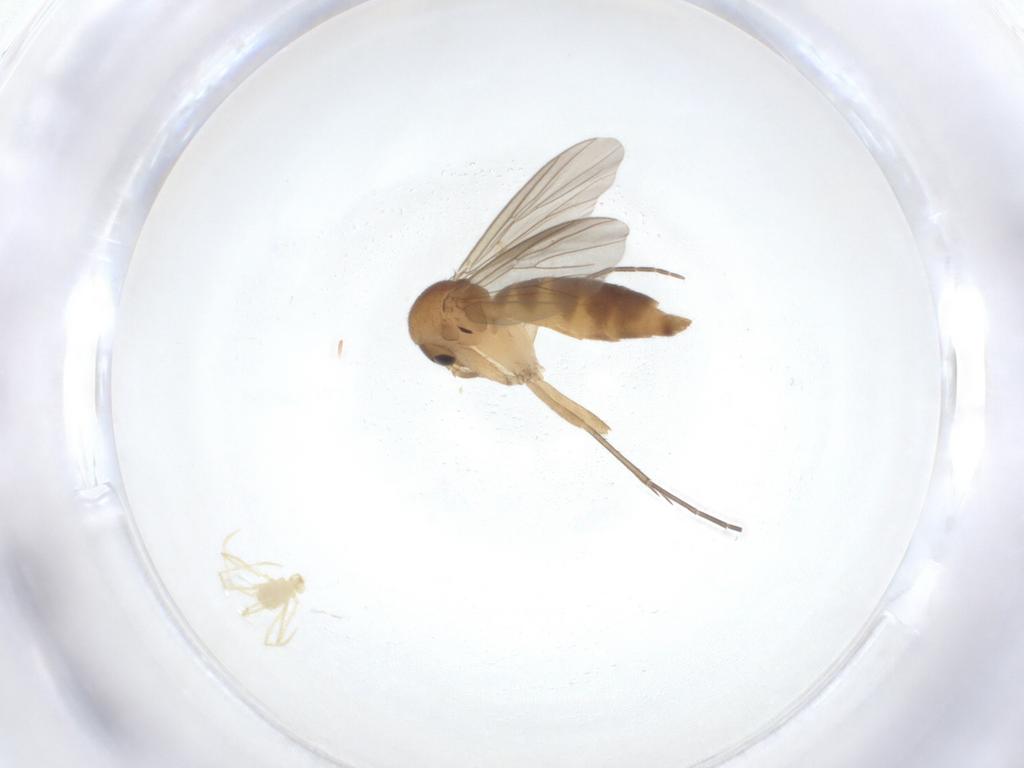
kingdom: Animalia
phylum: Arthropoda
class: Insecta
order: Diptera
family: Mycetophilidae
